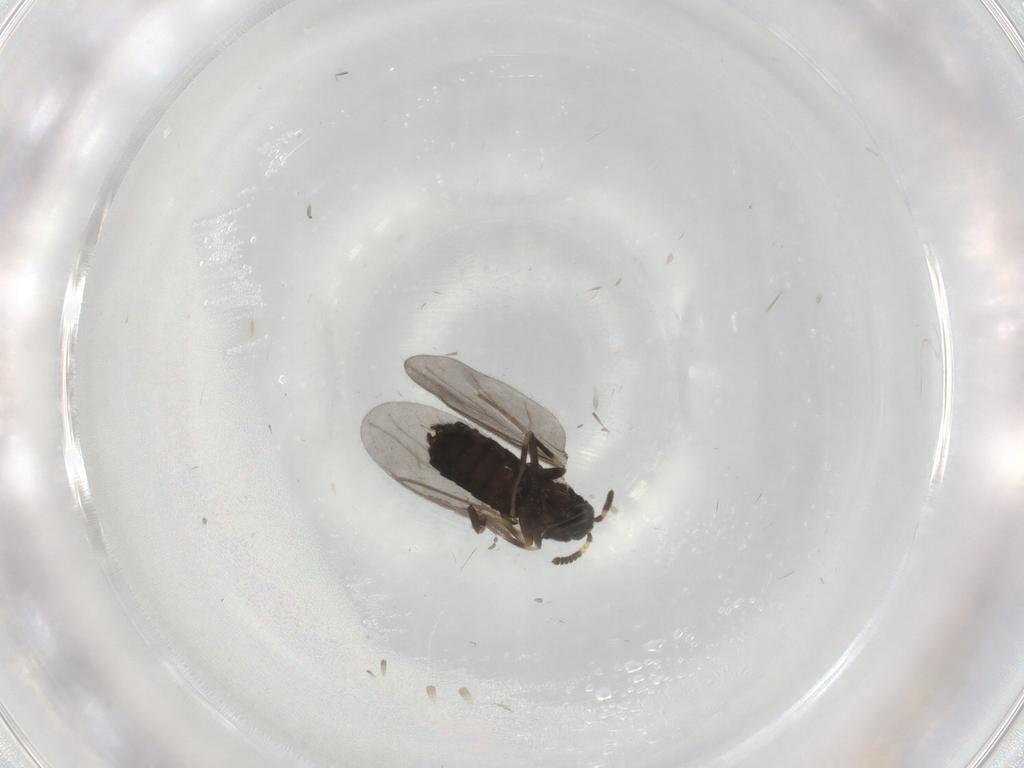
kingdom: Animalia
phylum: Arthropoda
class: Insecta
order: Diptera
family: Scatopsidae
